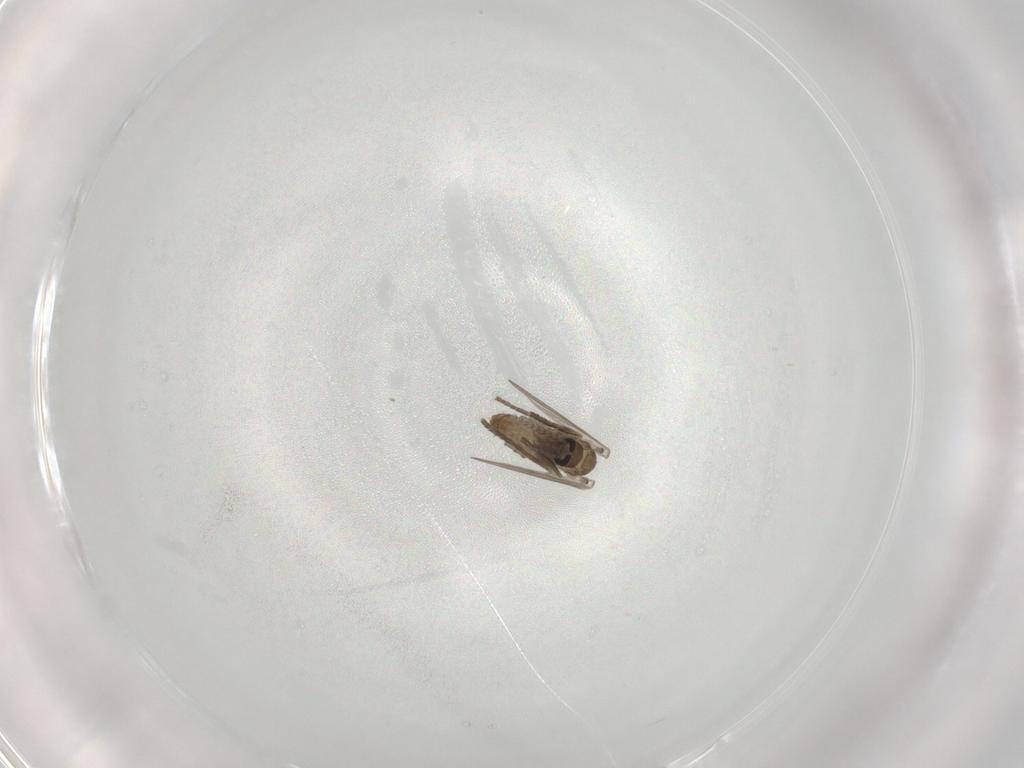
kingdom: Animalia
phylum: Arthropoda
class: Insecta
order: Diptera
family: Psychodidae
